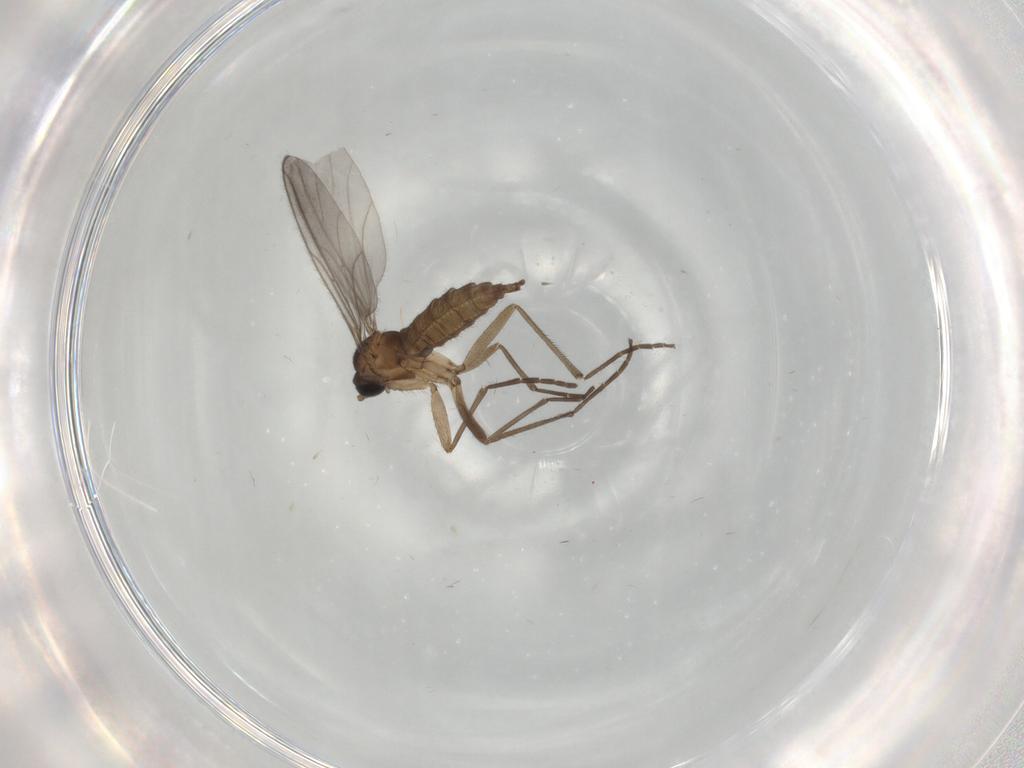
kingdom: Animalia
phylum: Arthropoda
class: Insecta
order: Diptera
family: Sciaridae
